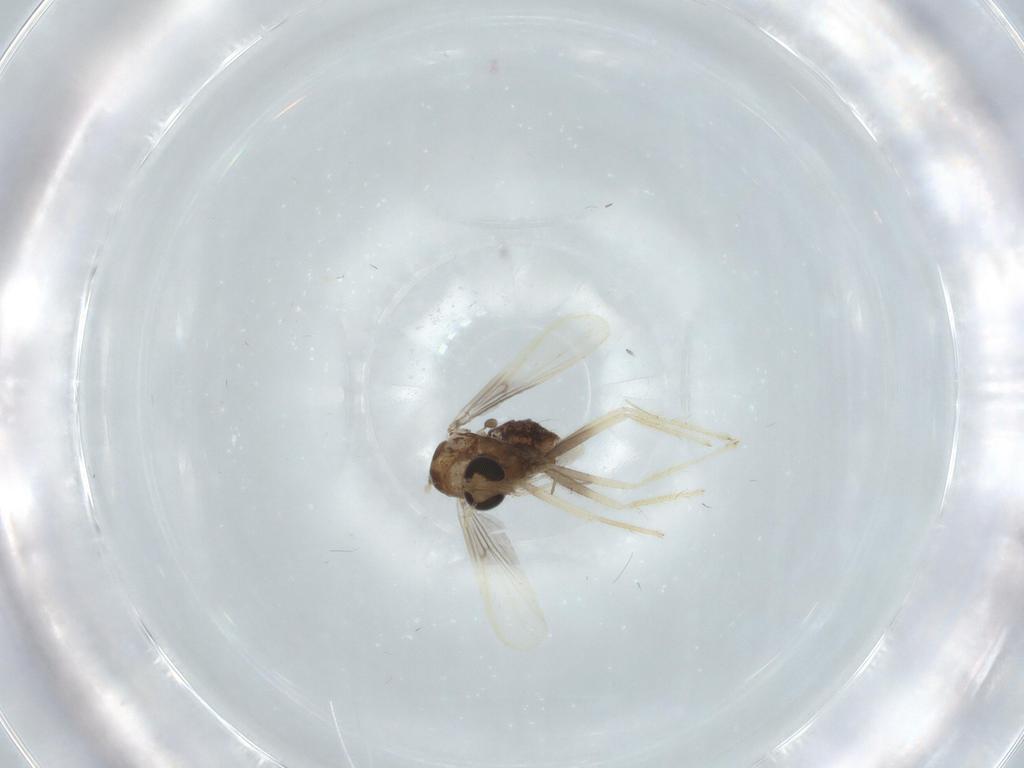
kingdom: Animalia
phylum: Arthropoda
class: Insecta
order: Diptera
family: Chironomidae
